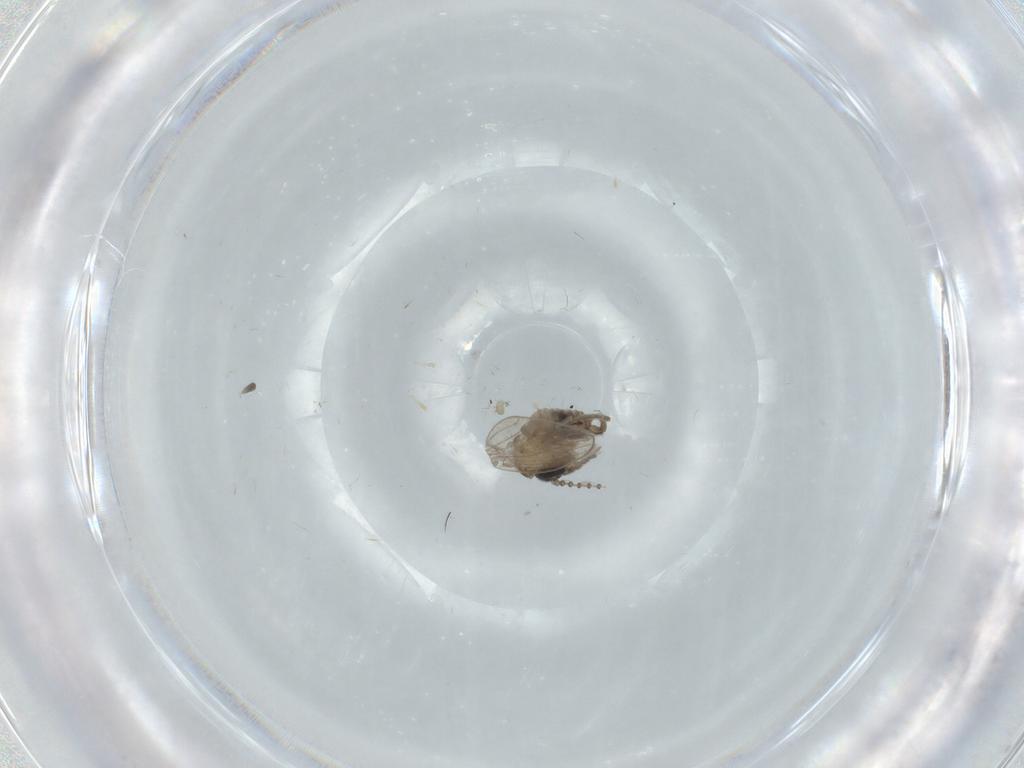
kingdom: Animalia
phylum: Arthropoda
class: Insecta
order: Diptera
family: Psychodidae
